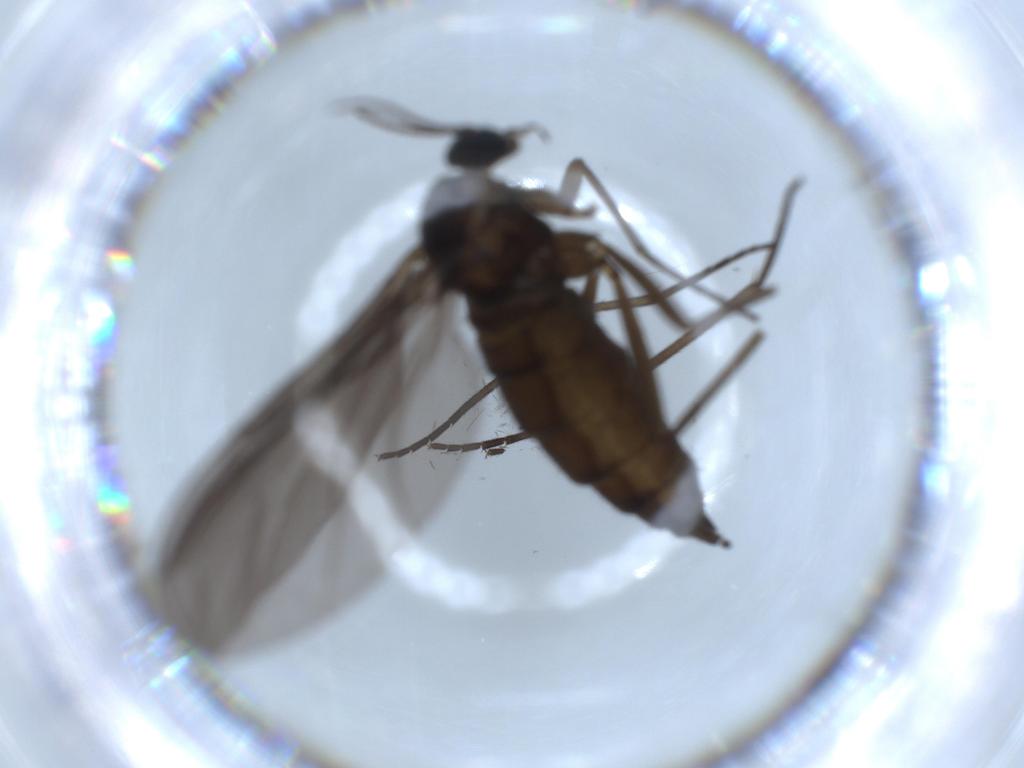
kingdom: Animalia
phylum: Arthropoda
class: Insecta
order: Diptera
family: Sciaridae
